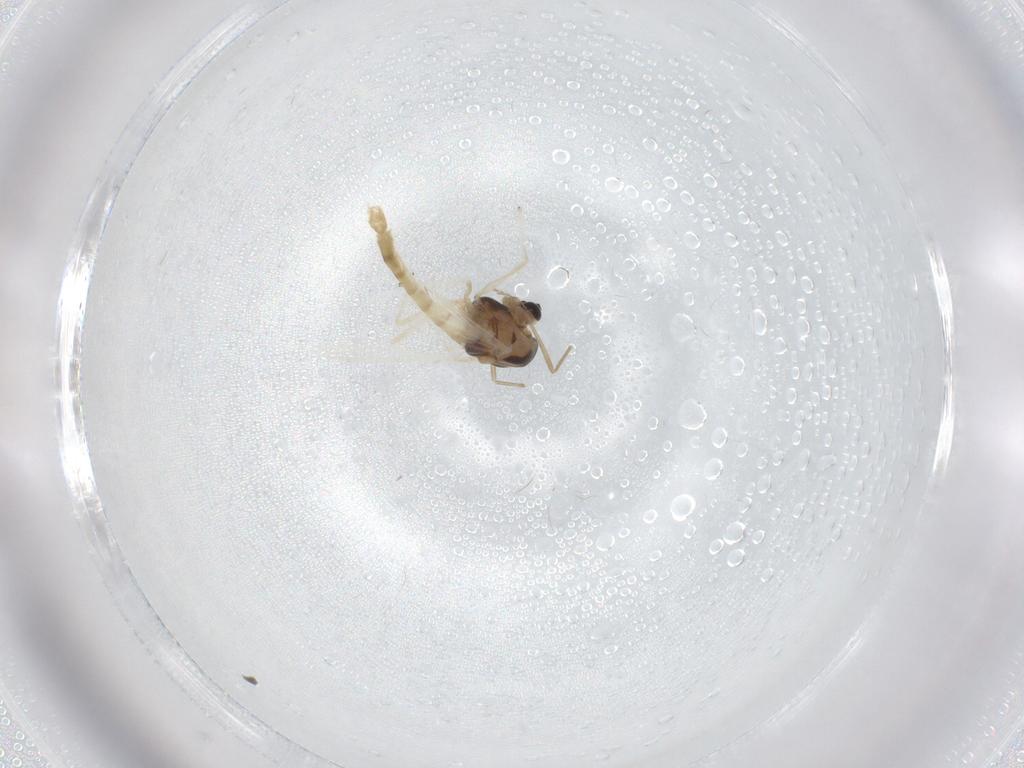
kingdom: Animalia
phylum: Arthropoda
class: Insecta
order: Diptera
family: Chironomidae
